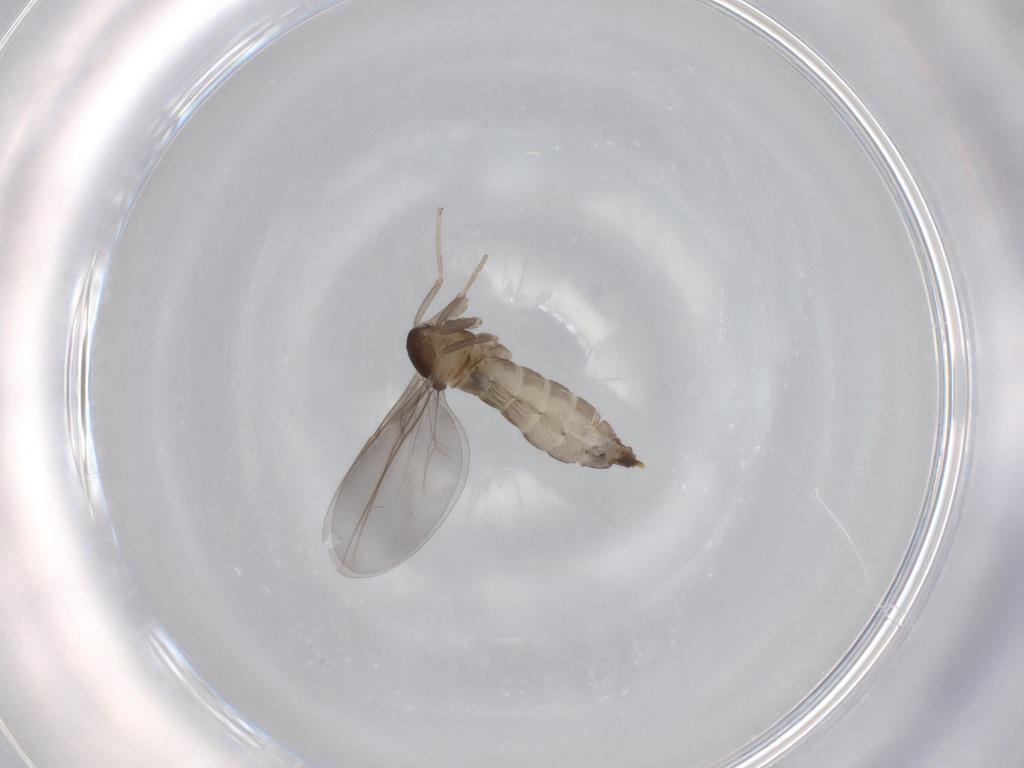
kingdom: Animalia
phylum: Arthropoda
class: Insecta
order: Diptera
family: Cecidomyiidae
